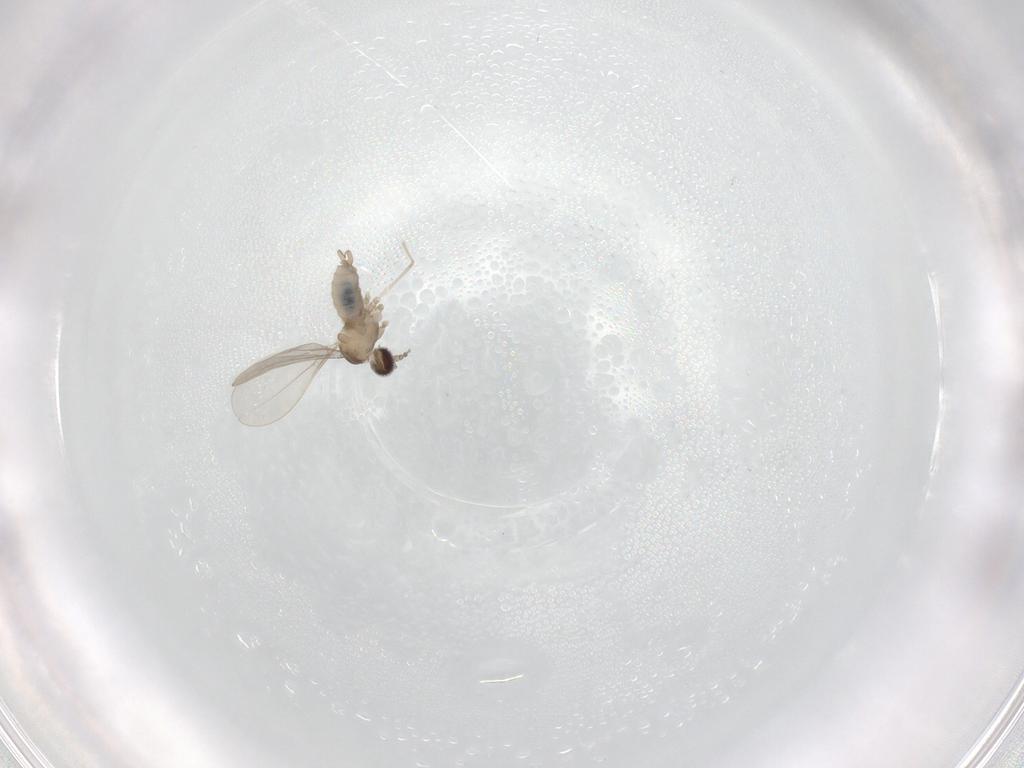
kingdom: Animalia
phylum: Arthropoda
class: Insecta
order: Diptera
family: Cecidomyiidae
